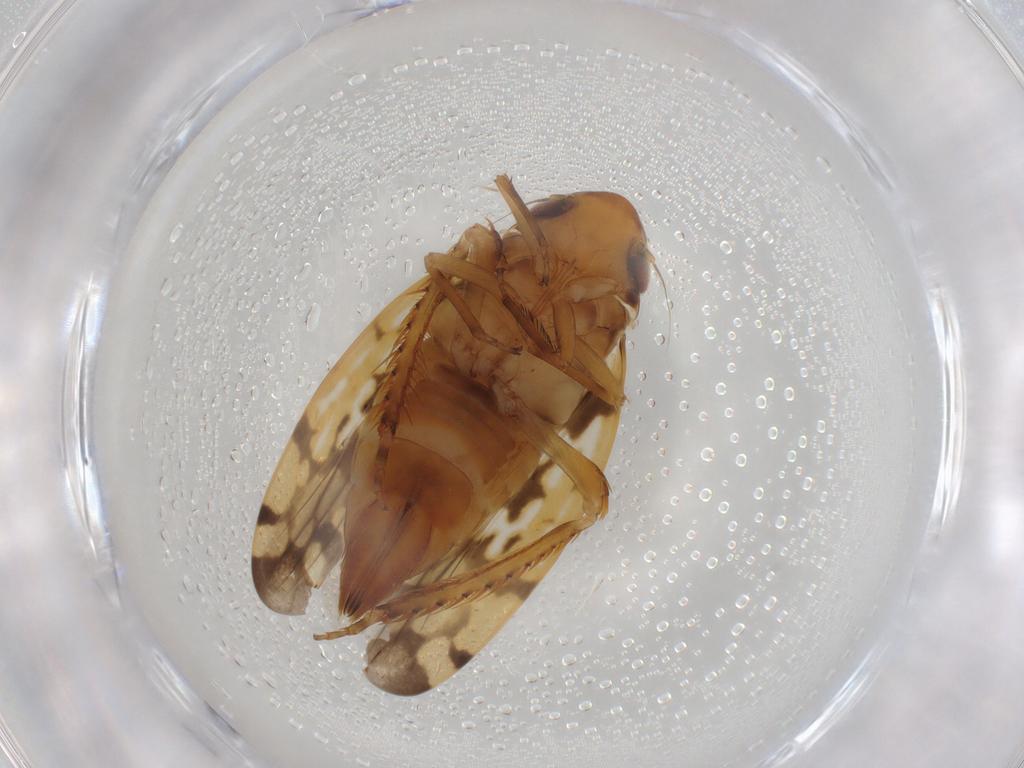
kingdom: Animalia
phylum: Arthropoda
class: Insecta
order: Hemiptera
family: Cicadellidae
